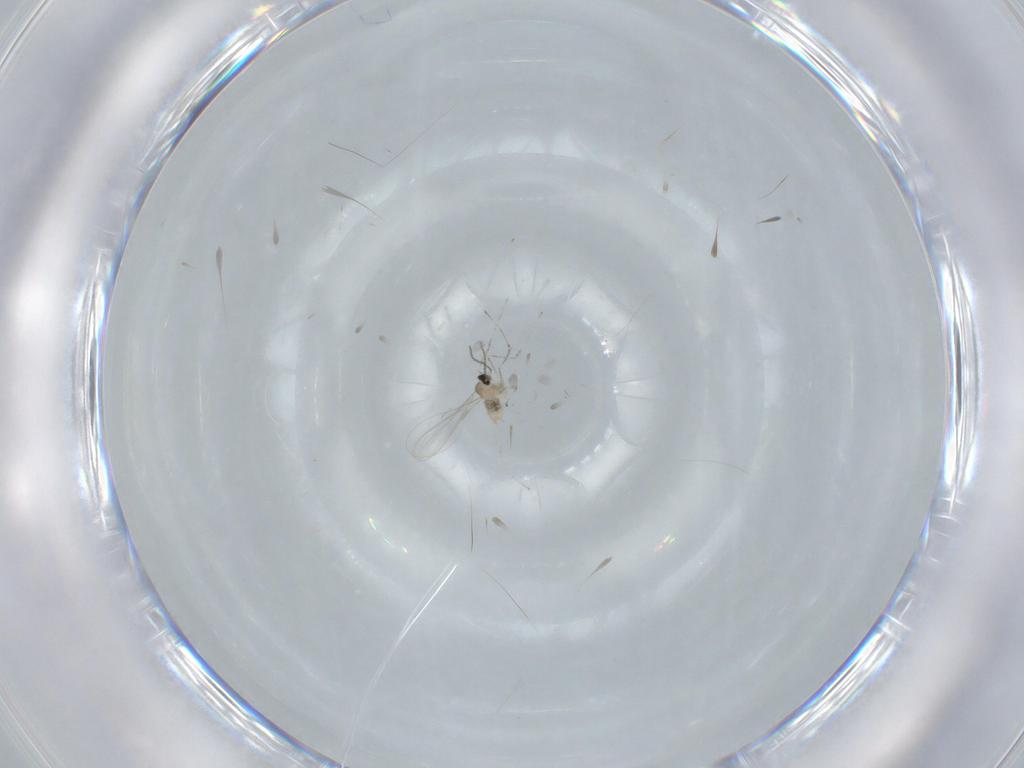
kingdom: Animalia
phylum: Arthropoda
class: Insecta
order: Diptera
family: Cecidomyiidae
